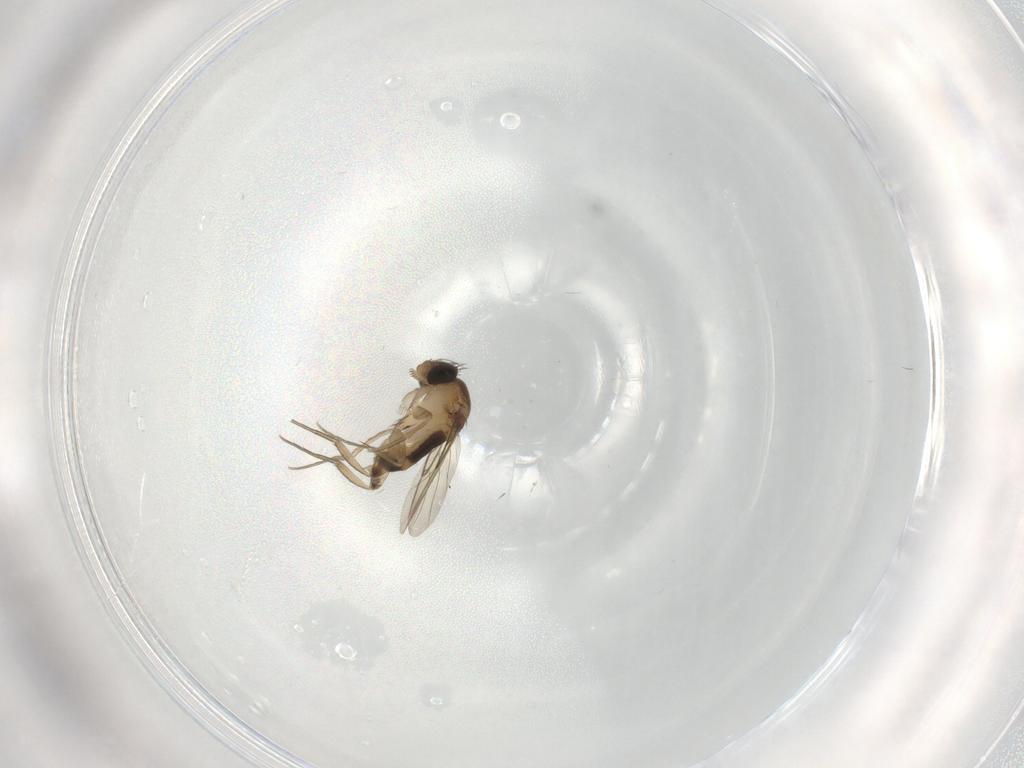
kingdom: Animalia
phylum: Arthropoda
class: Insecta
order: Diptera
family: Phoridae
